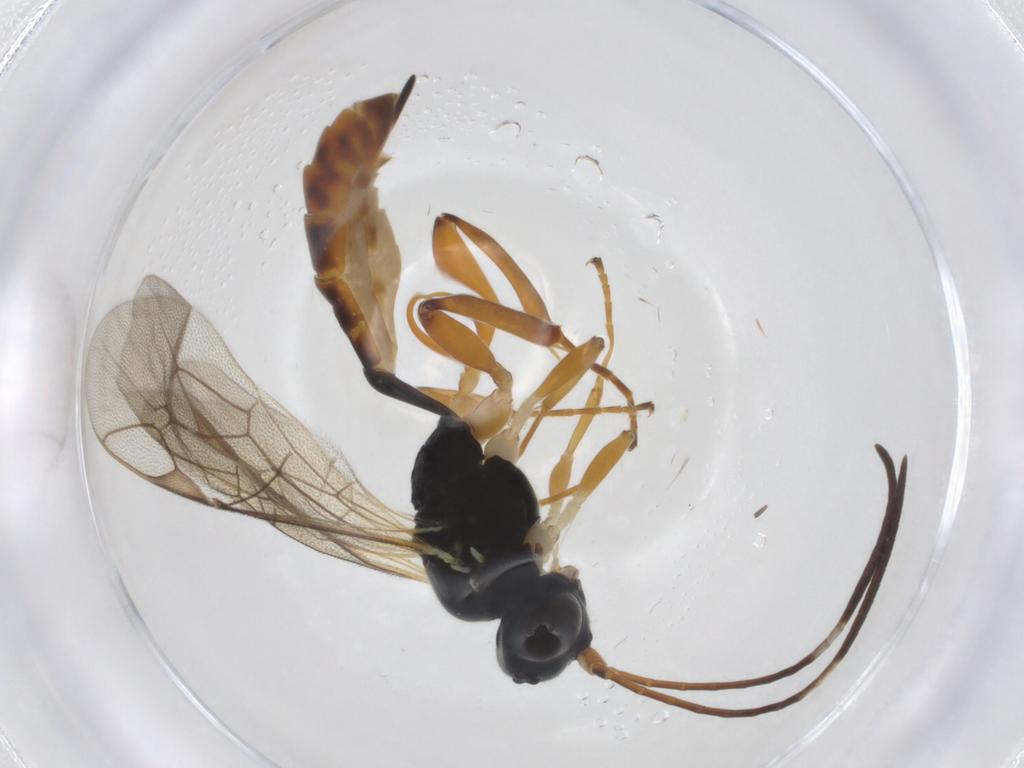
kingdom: Animalia
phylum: Arthropoda
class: Insecta
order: Hymenoptera
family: Ichneumonidae
